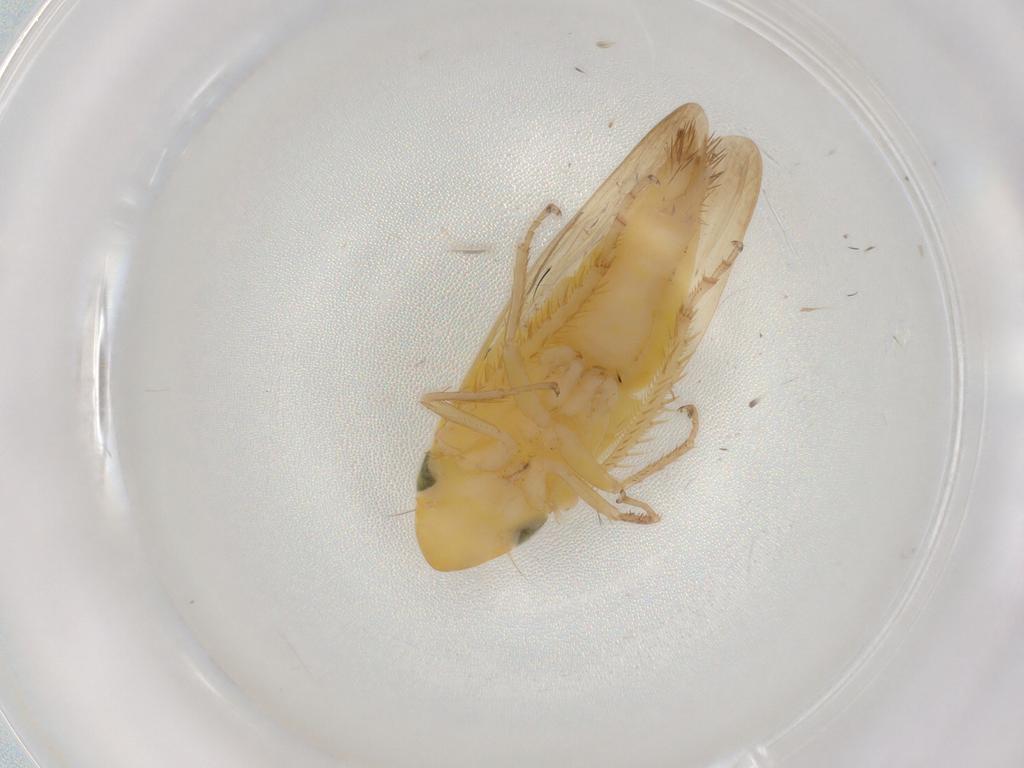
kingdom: Animalia
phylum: Arthropoda
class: Insecta
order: Hemiptera
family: Cicadellidae
